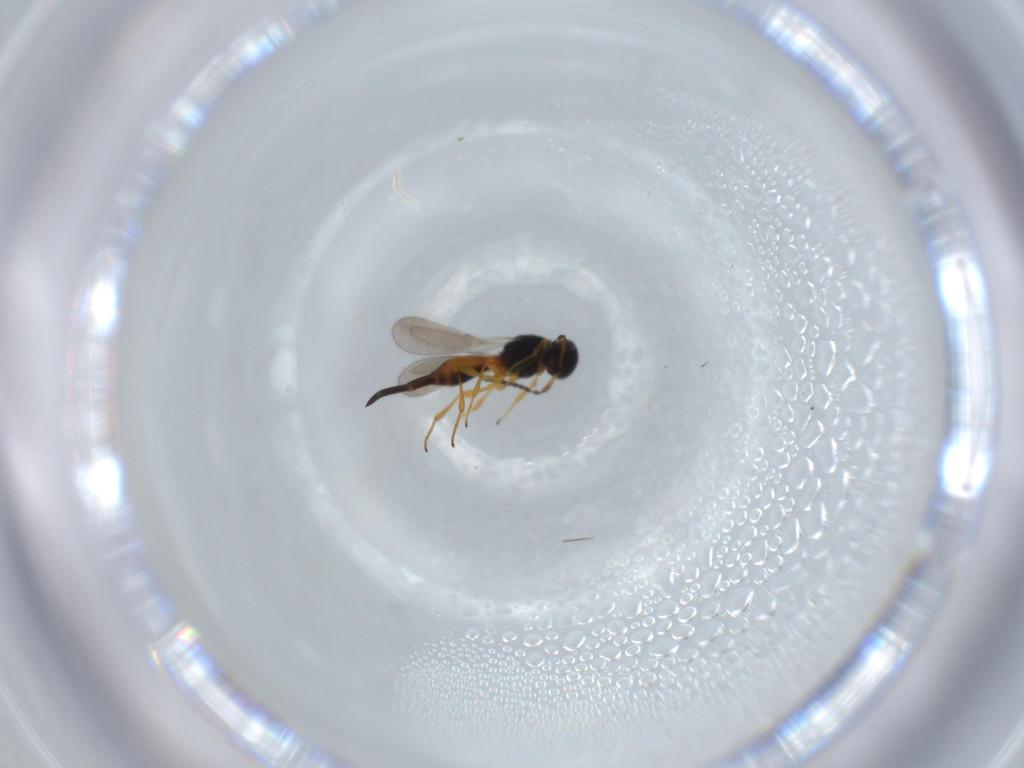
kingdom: Animalia
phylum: Arthropoda
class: Insecta
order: Hymenoptera
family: Platygastridae
